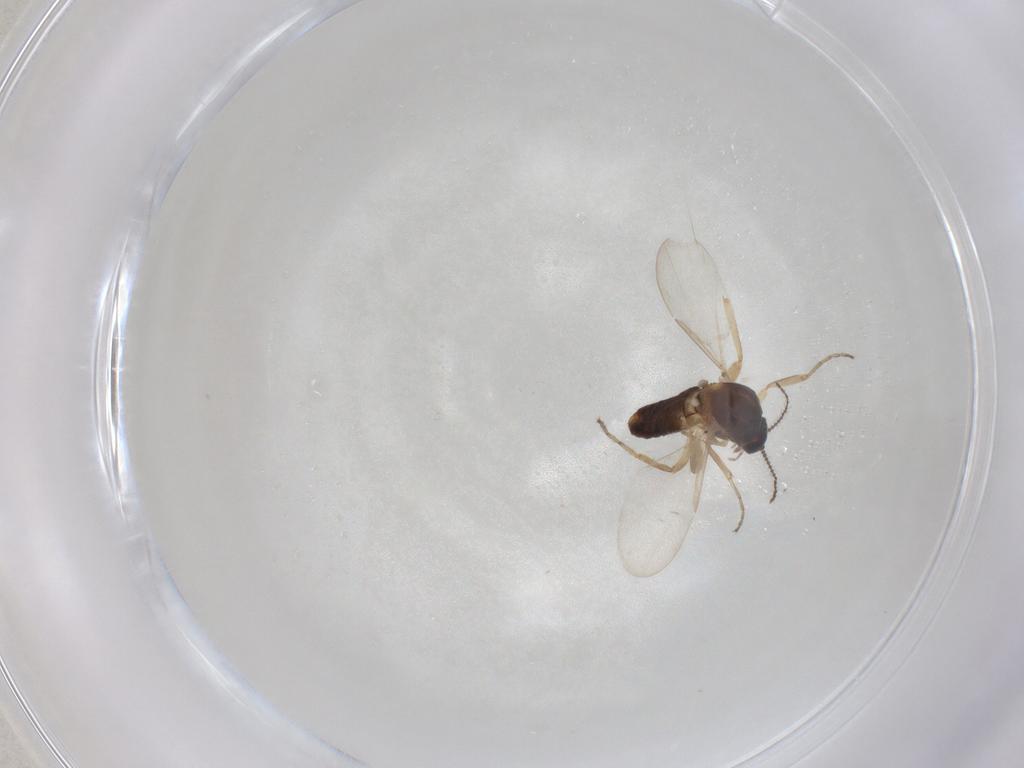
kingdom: Animalia
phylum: Arthropoda
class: Insecta
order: Diptera
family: Ceratopogonidae
